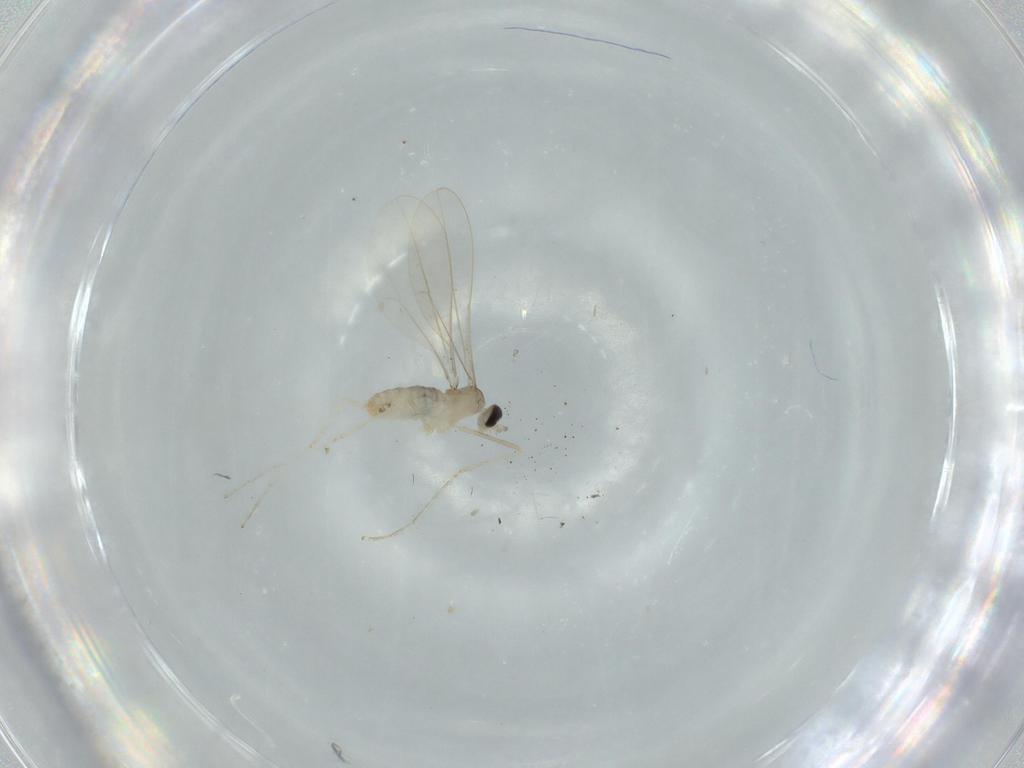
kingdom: Animalia
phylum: Arthropoda
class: Insecta
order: Diptera
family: Cecidomyiidae
